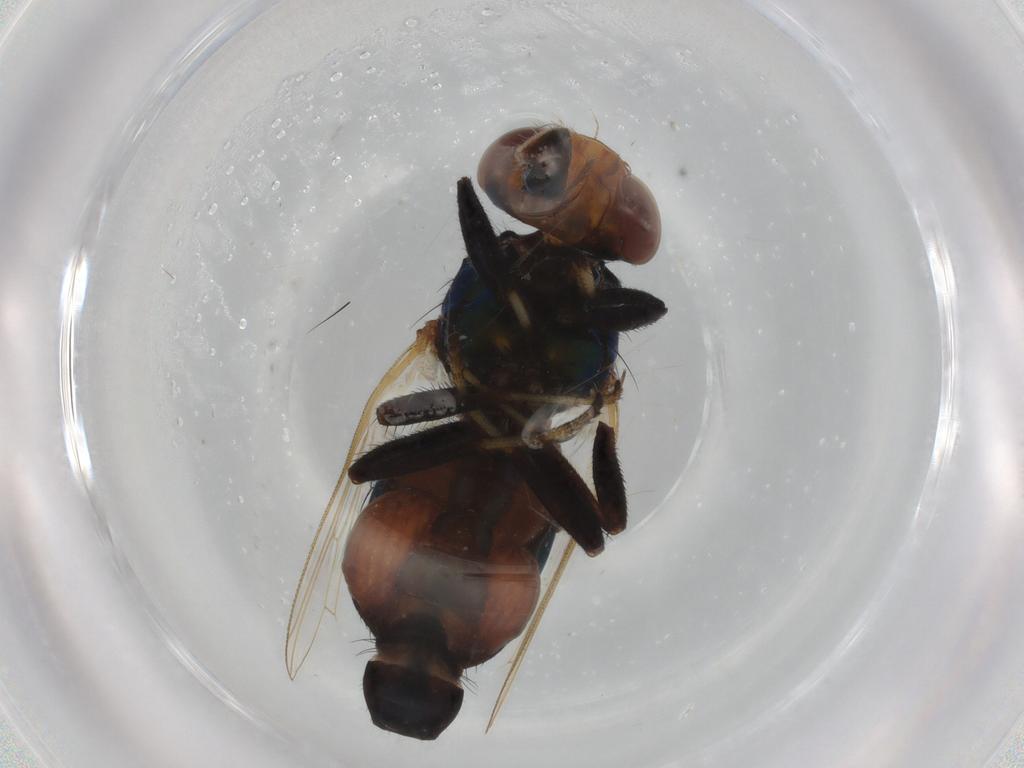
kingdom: Animalia
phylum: Arthropoda
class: Insecta
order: Diptera
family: Ulidiidae
